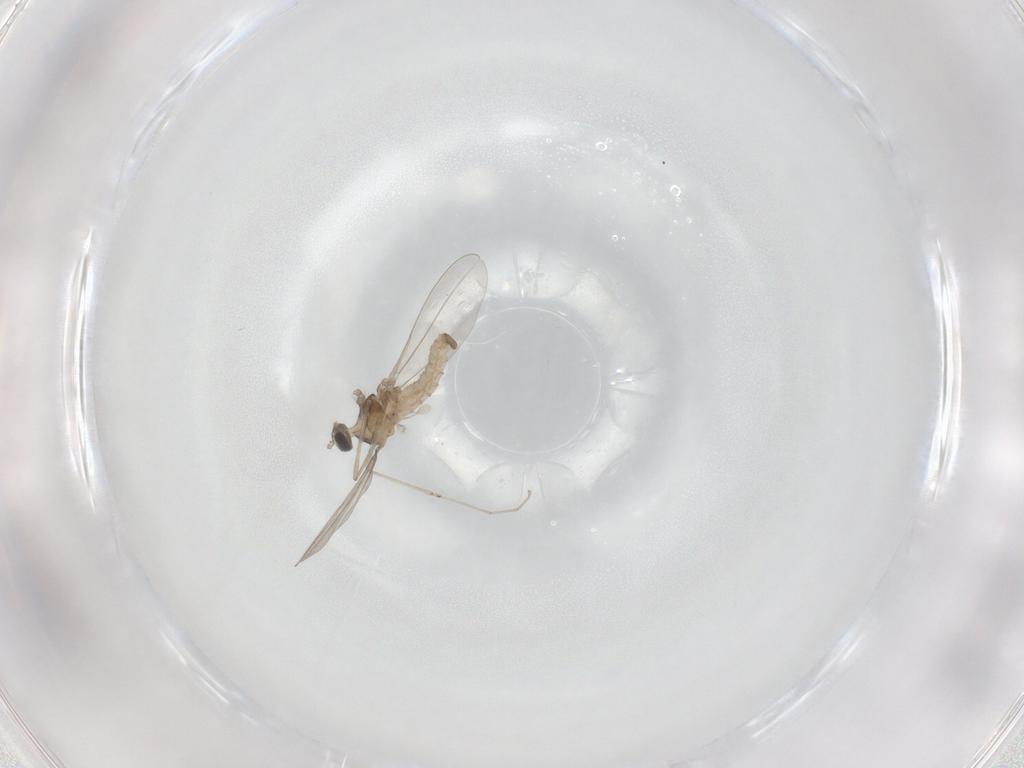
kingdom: Animalia
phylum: Arthropoda
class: Insecta
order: Diptera
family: Cecidomyiidae
